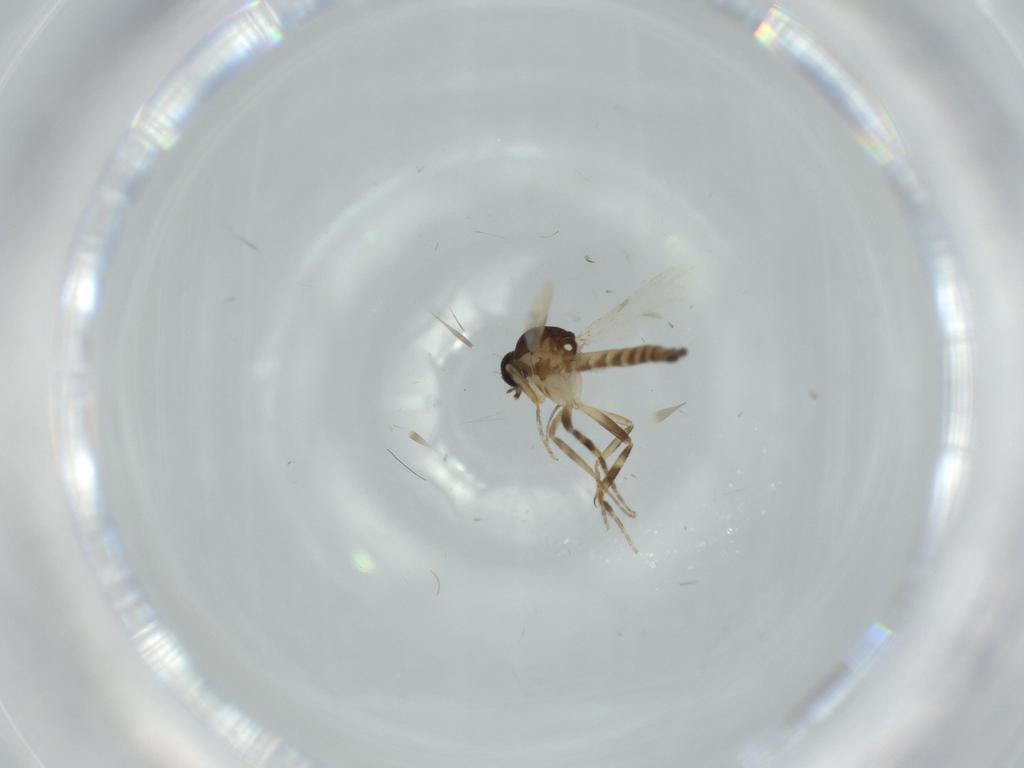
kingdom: Animalia
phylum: Arthropoda
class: Insecta
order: Diptera
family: Ceratopogonidae
